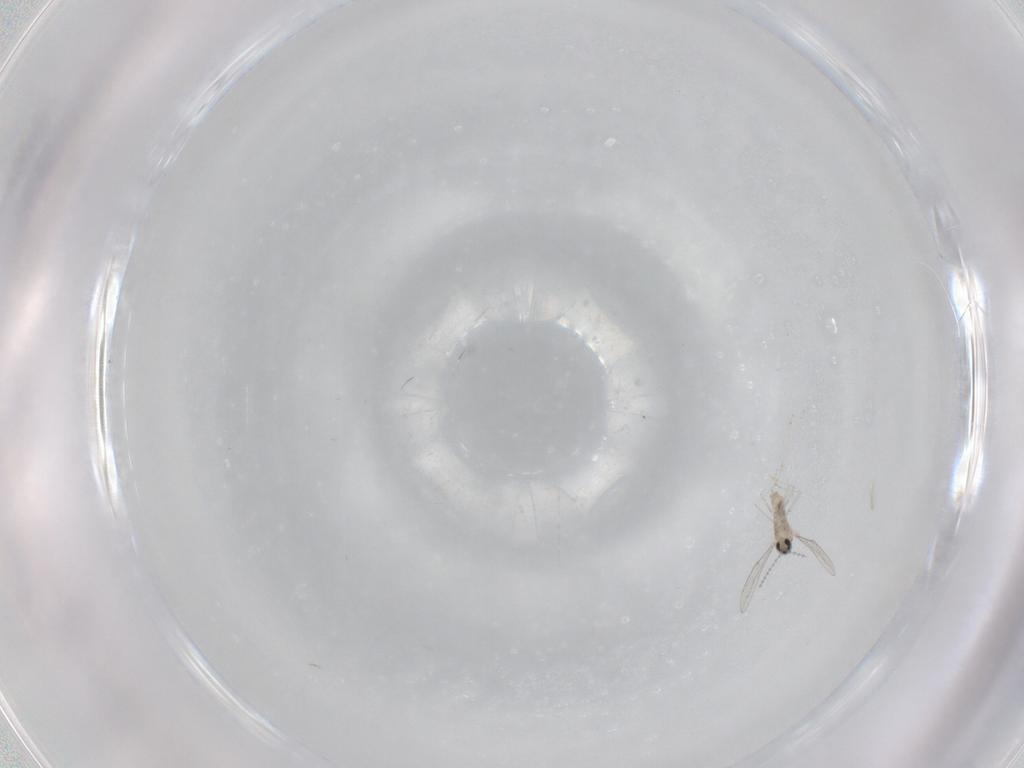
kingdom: Animalia
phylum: Arthropoda
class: Insecta
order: Diptera
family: Cecidomyiidae
